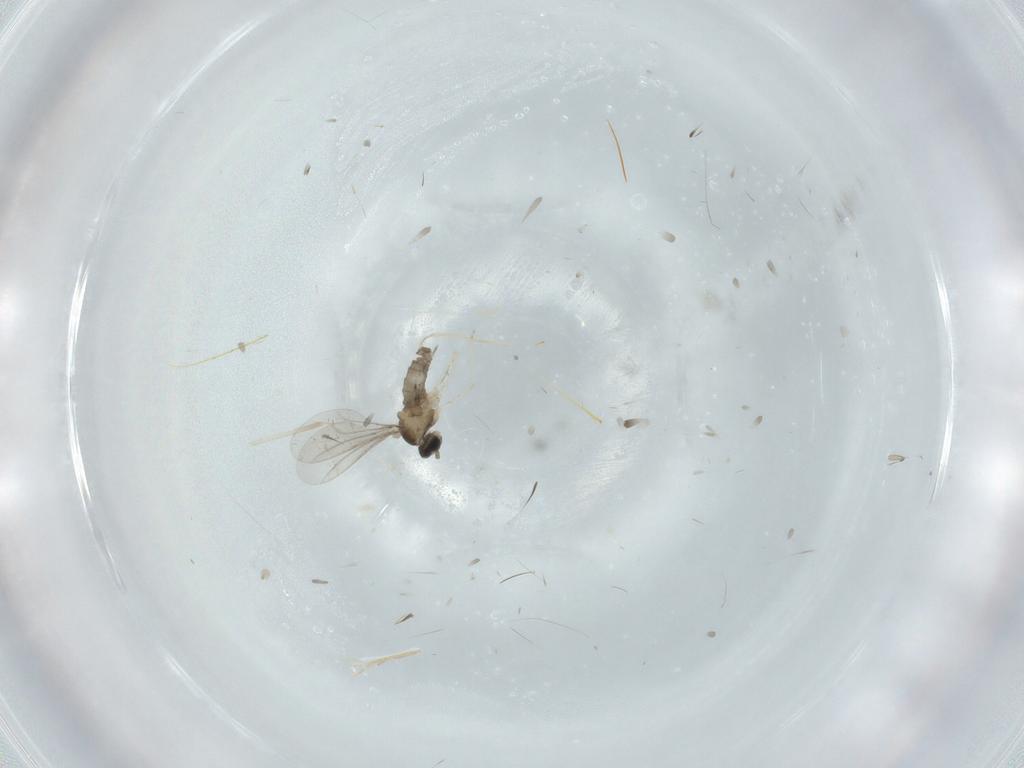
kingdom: Animalia
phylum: Arthropoda
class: Insecta
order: Diptera
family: Cecidomyiidae
